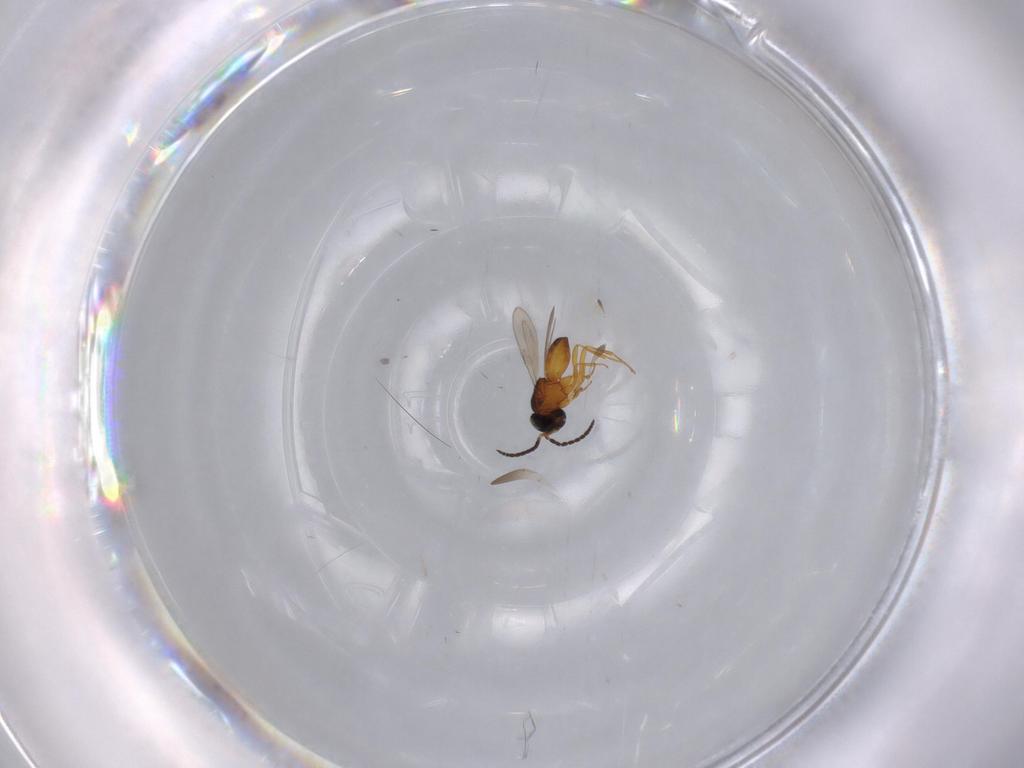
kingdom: Animalia
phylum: Arthropoda
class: Insecta
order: Hymenoptera
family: Scelionidae
